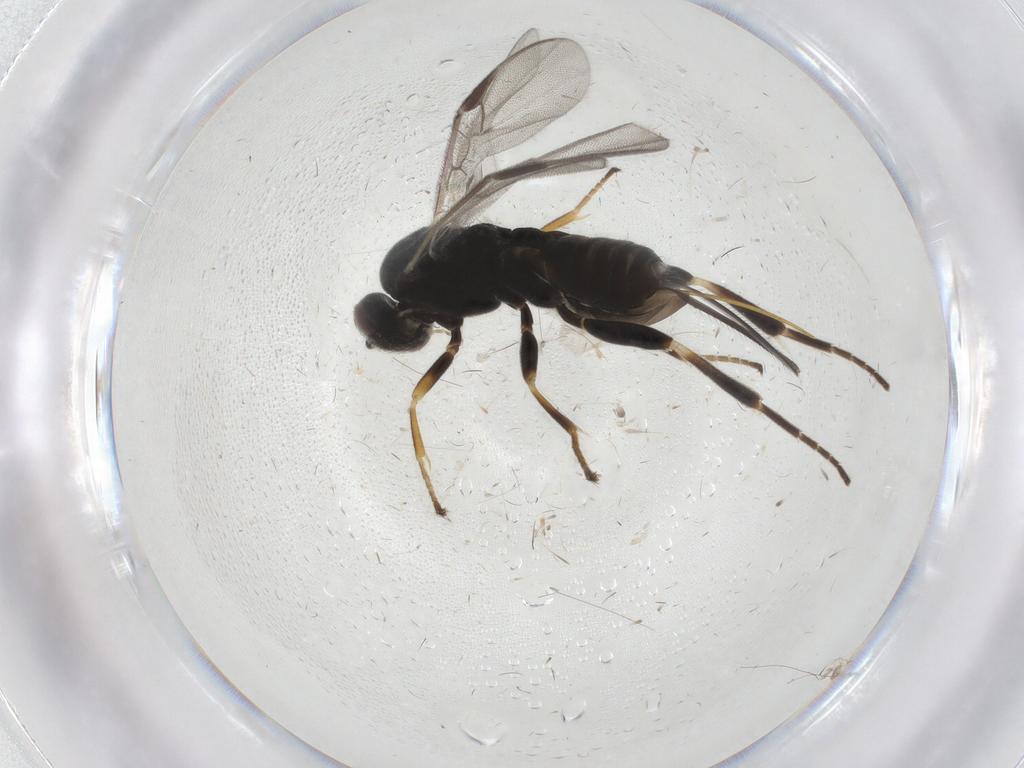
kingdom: Animalia
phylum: Arthropoda
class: Insecta
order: Hymenoptera
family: Braconidae
